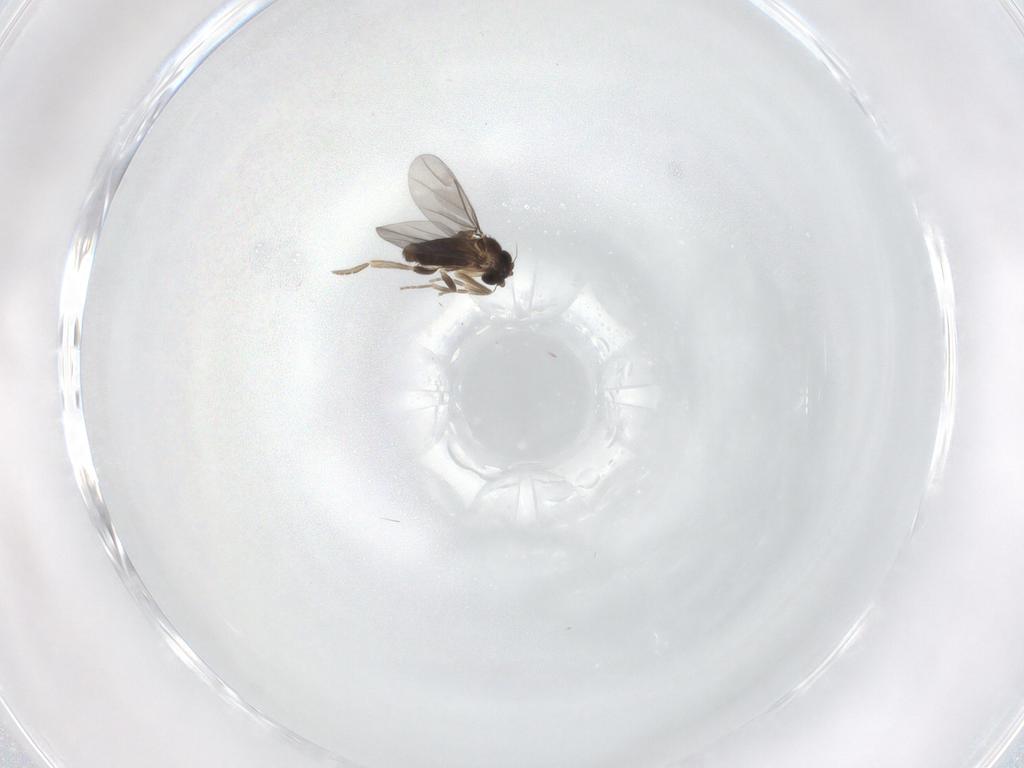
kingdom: Animalia
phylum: Arthropoda
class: Insecta
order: Diptera
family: Phoridae
